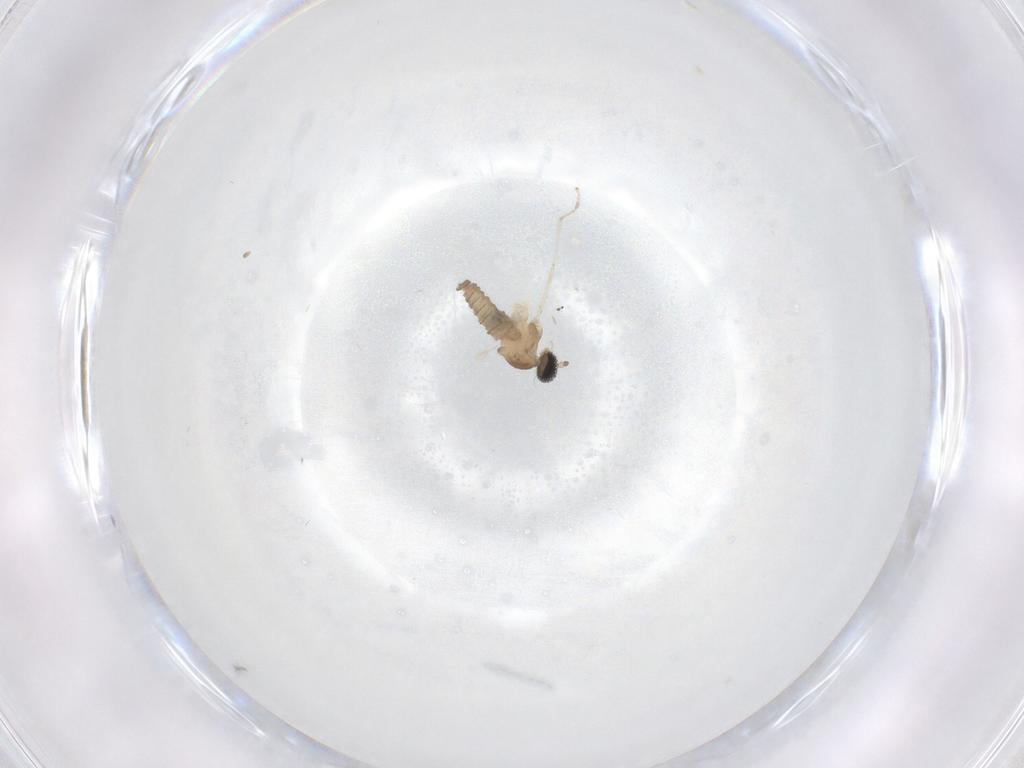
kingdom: Animalia
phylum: Arthropoda
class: Insecta
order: Diptera
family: Cecidomyiidae
